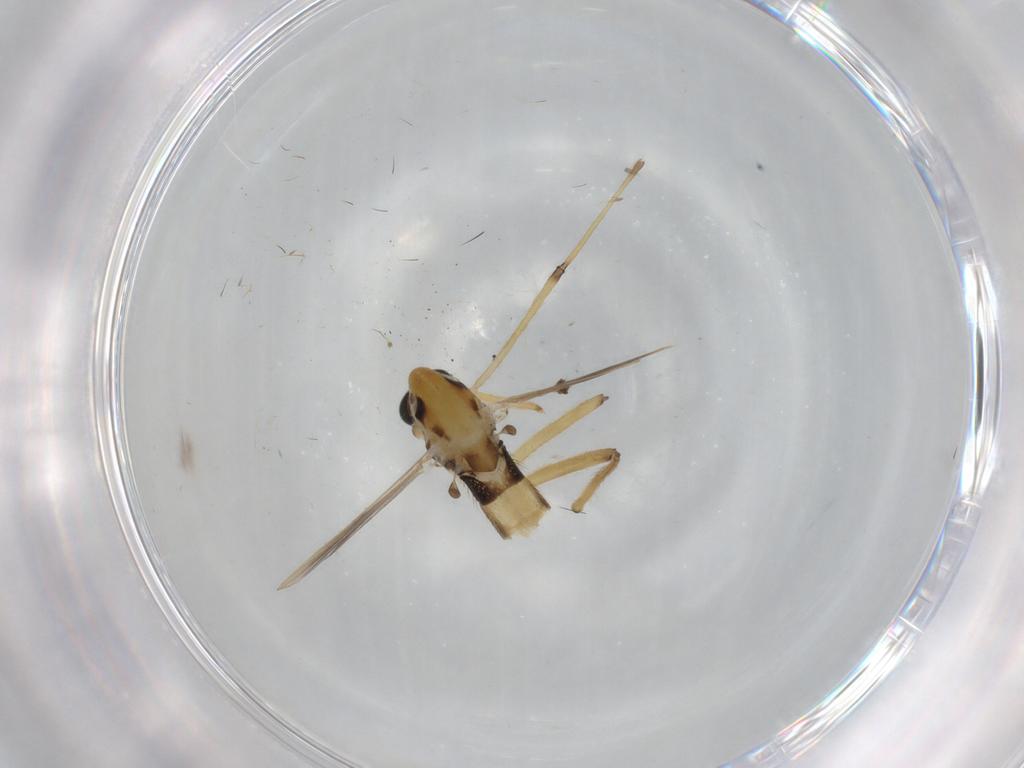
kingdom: Animalia
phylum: Arthropoda
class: Insecta
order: Diptera
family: Chironomidae
